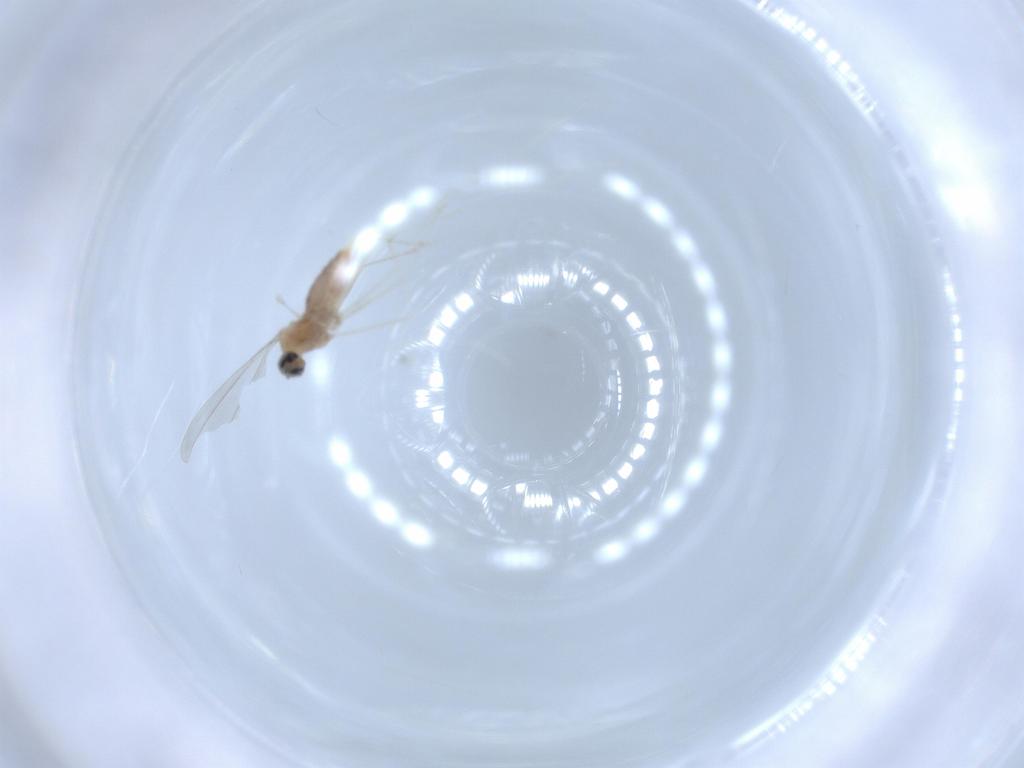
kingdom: Animalia
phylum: Arthropoda
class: Insecta
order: Diptera
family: Cecidomyiidae
